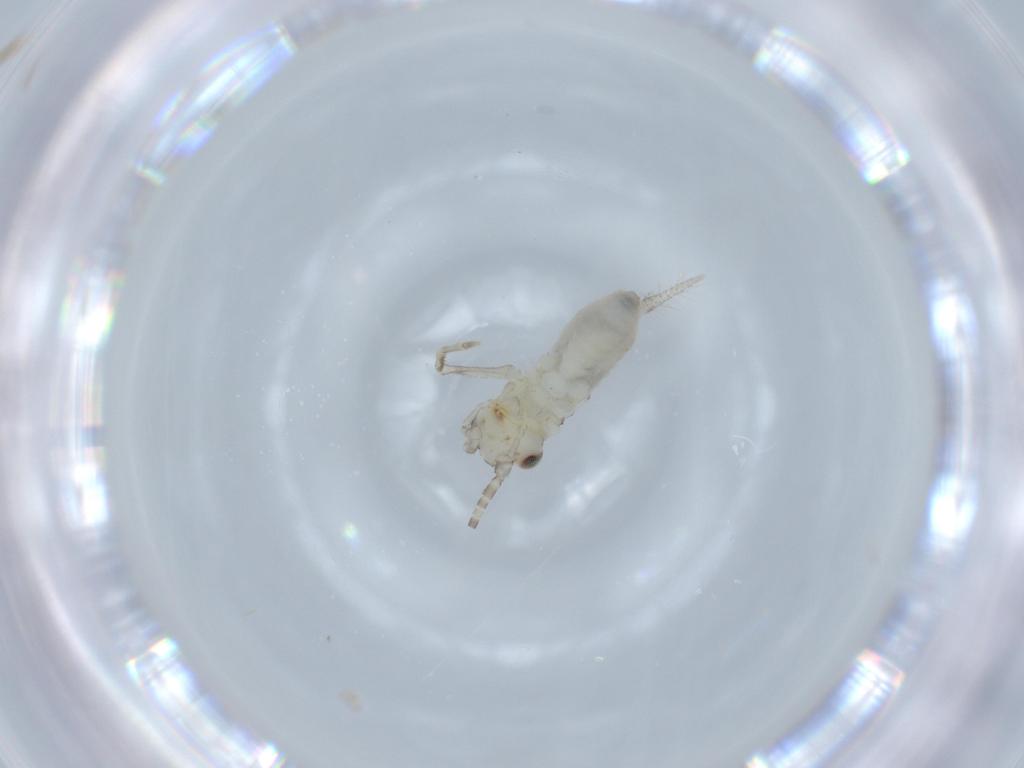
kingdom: Animalia
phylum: Arthropoda
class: Insecta
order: Orthoptera
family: Trigonidiidae
